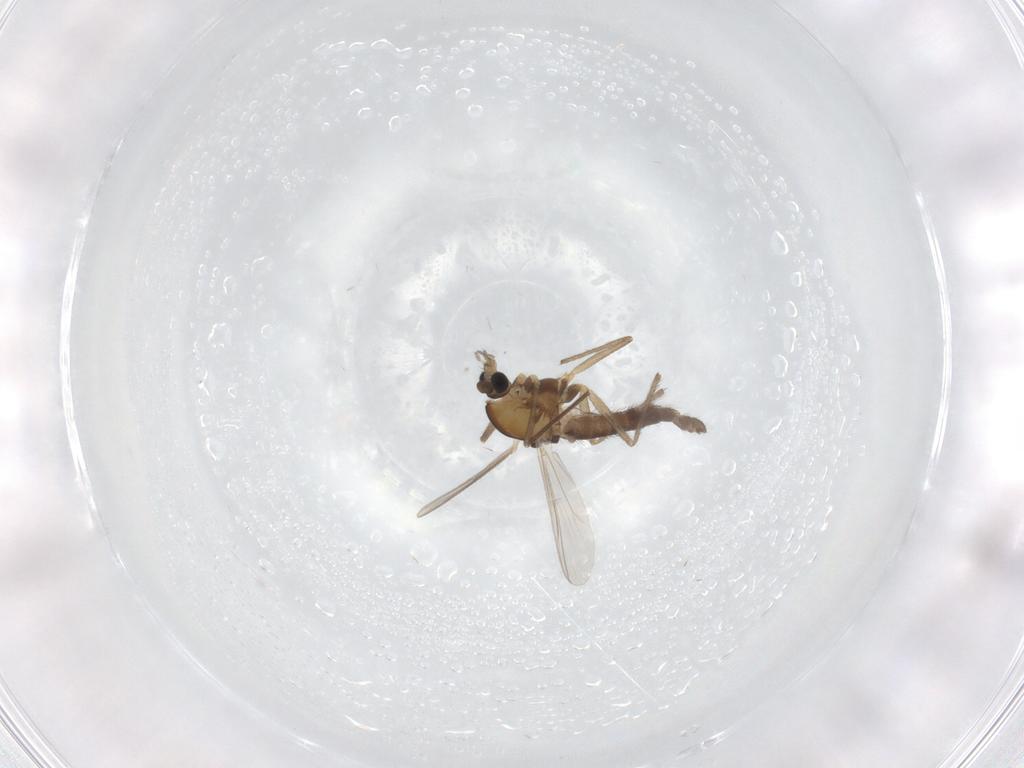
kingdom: Animalia
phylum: Arthropoda
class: Insecta
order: Diptera
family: Chironomidae
